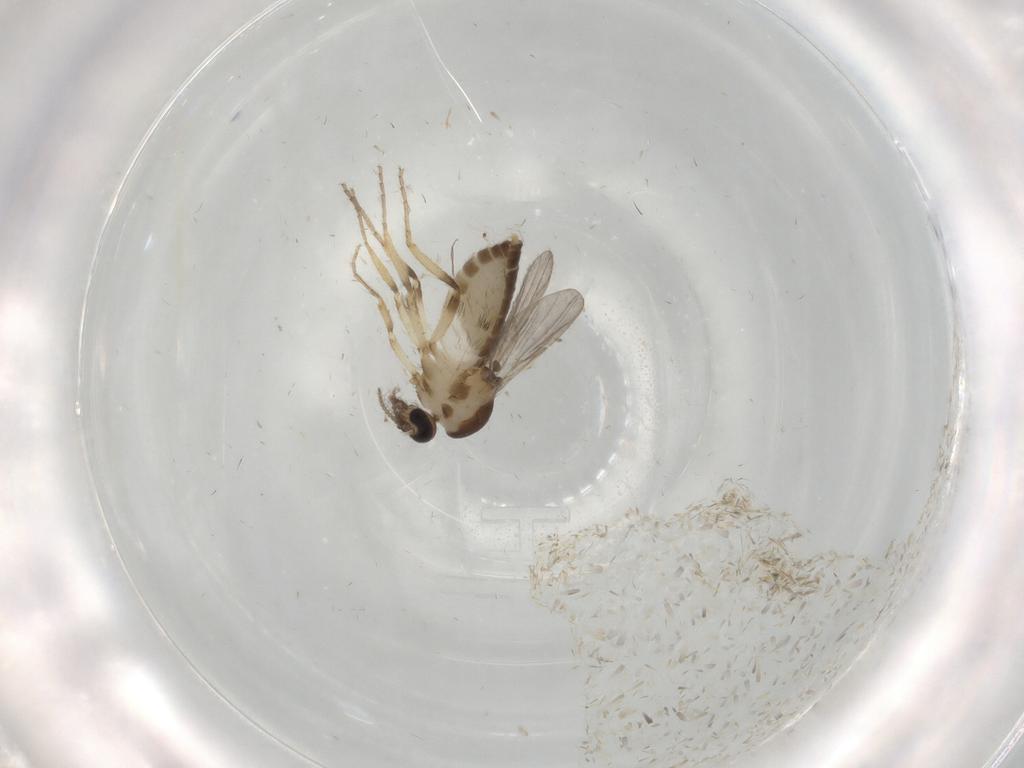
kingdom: Animalia
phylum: Arthropoda
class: Insecta
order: Diptera
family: Ceratopogonidae
